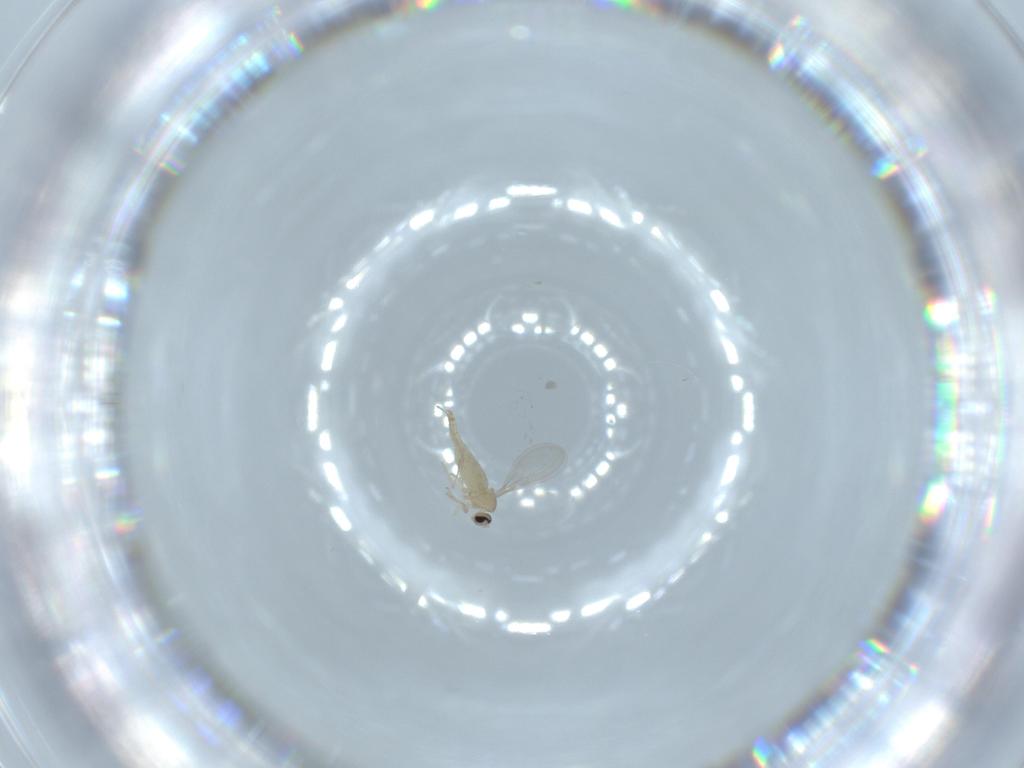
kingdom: Animalia
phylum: Arthropoda
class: Insecta
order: Diptera
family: Cecidomyiidae
